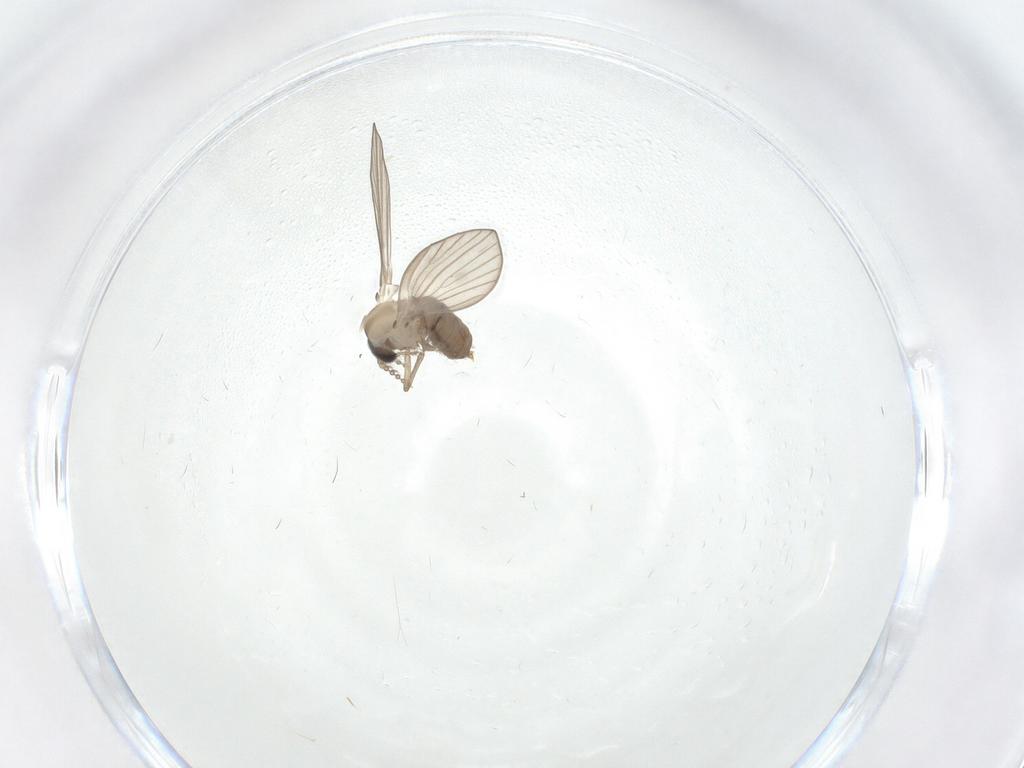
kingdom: Animalia
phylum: Arthropoda
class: Insecta
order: Diptera
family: Psychodidae
